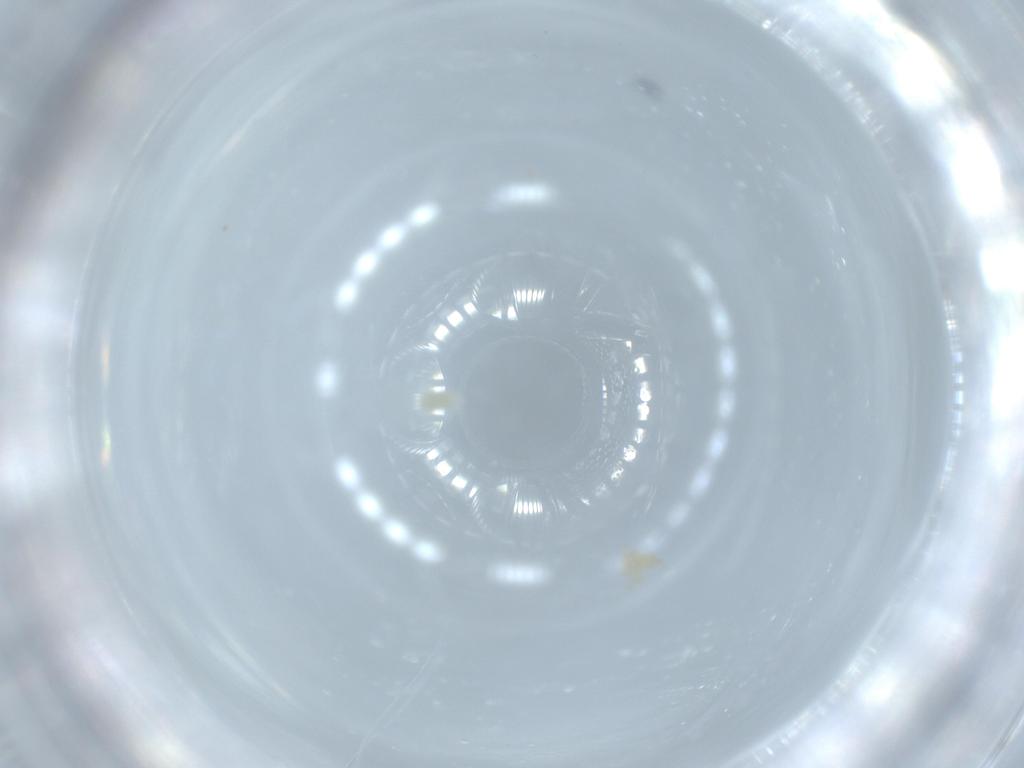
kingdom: Animalia
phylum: Arthropoda
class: Arachnida
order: Trombidiformes
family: Eupodidae
